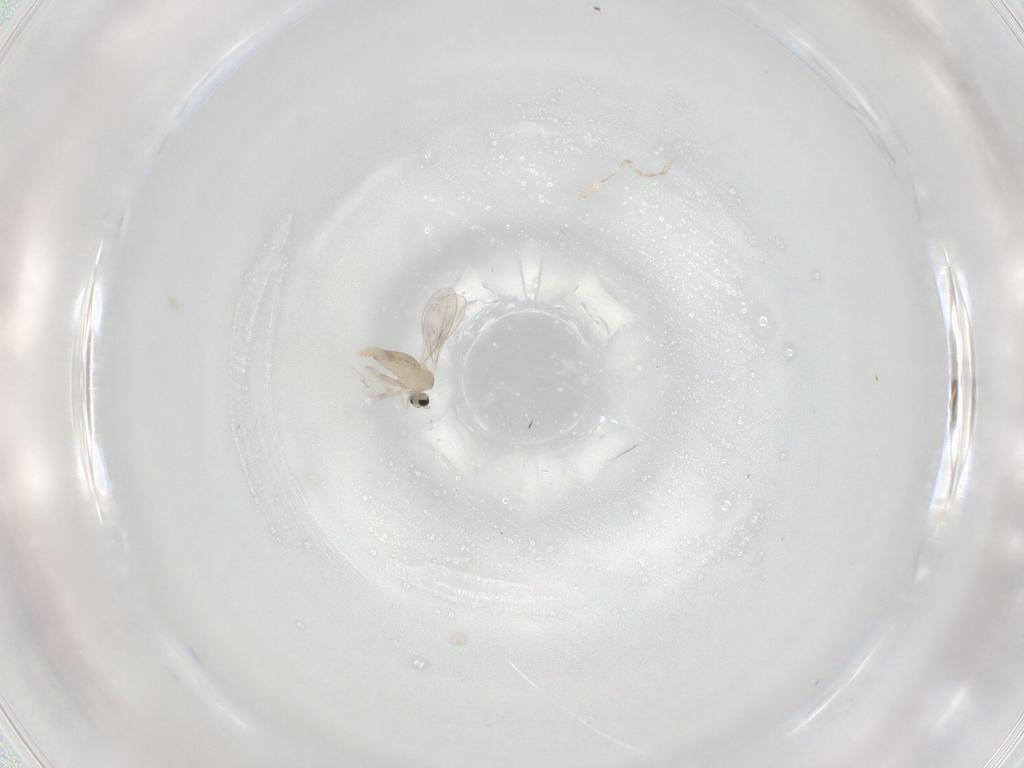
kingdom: Animalia
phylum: Arthropoda
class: Insecta
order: Diptera
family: Cecidomyiidae
